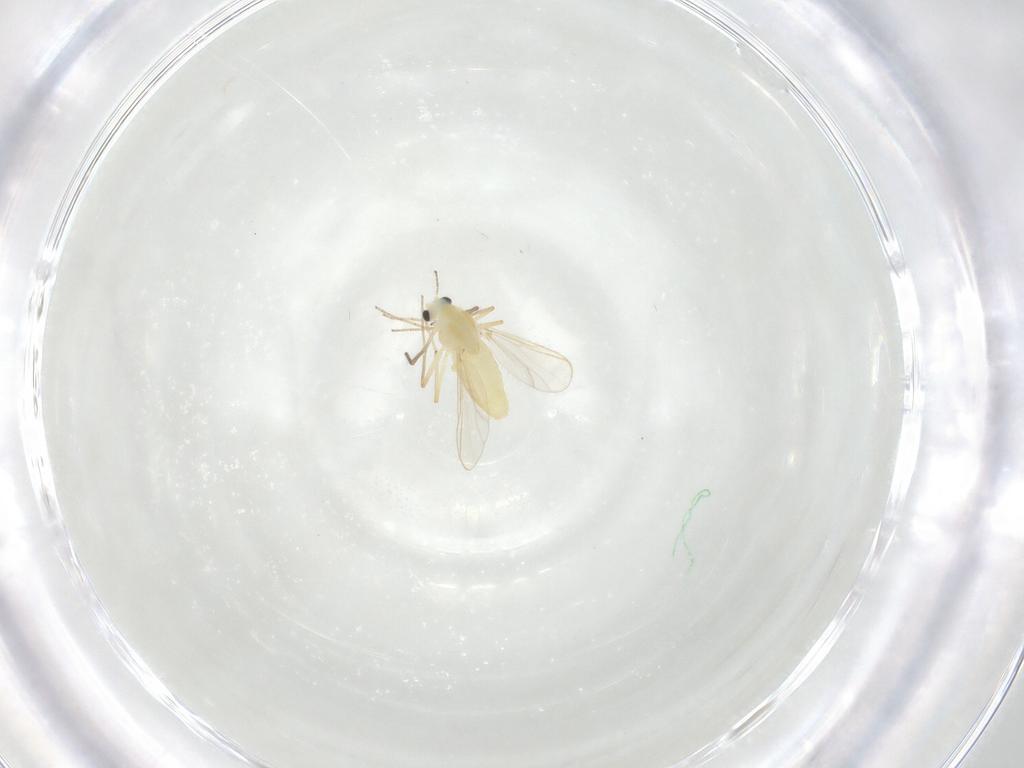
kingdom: Animalia
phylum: Arthropoda
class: Insecta
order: Diptera
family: Chironomidae
